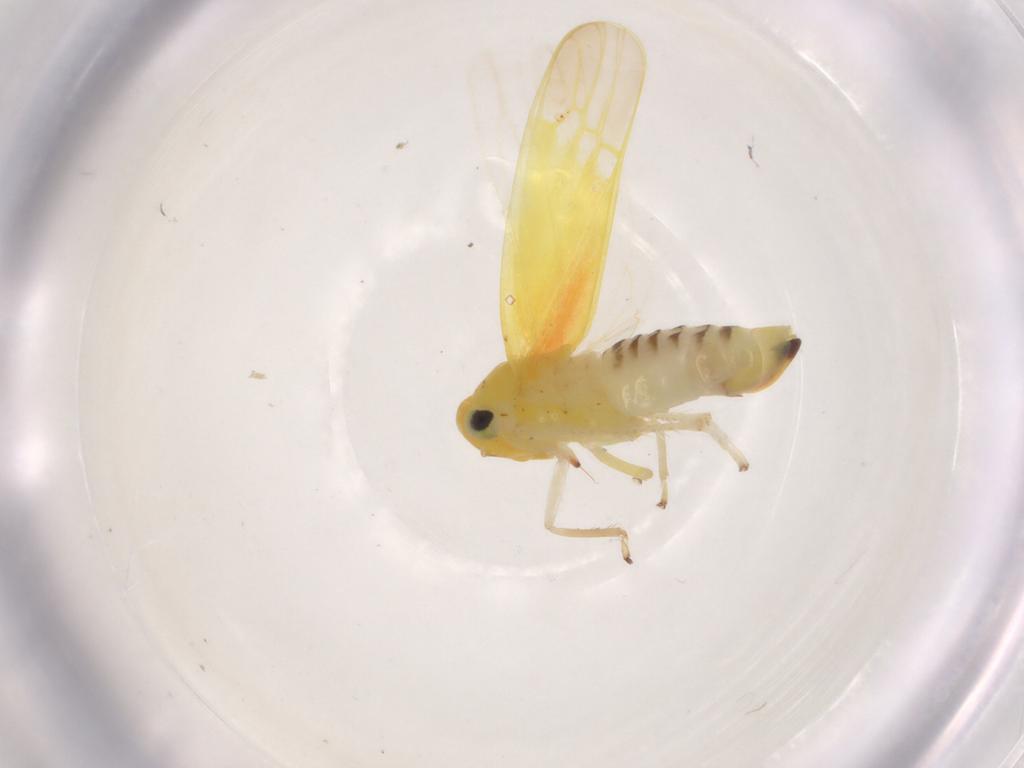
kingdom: Animalia
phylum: Arthropoda
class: Insecta
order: Hemiptera
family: Cicadellidae
